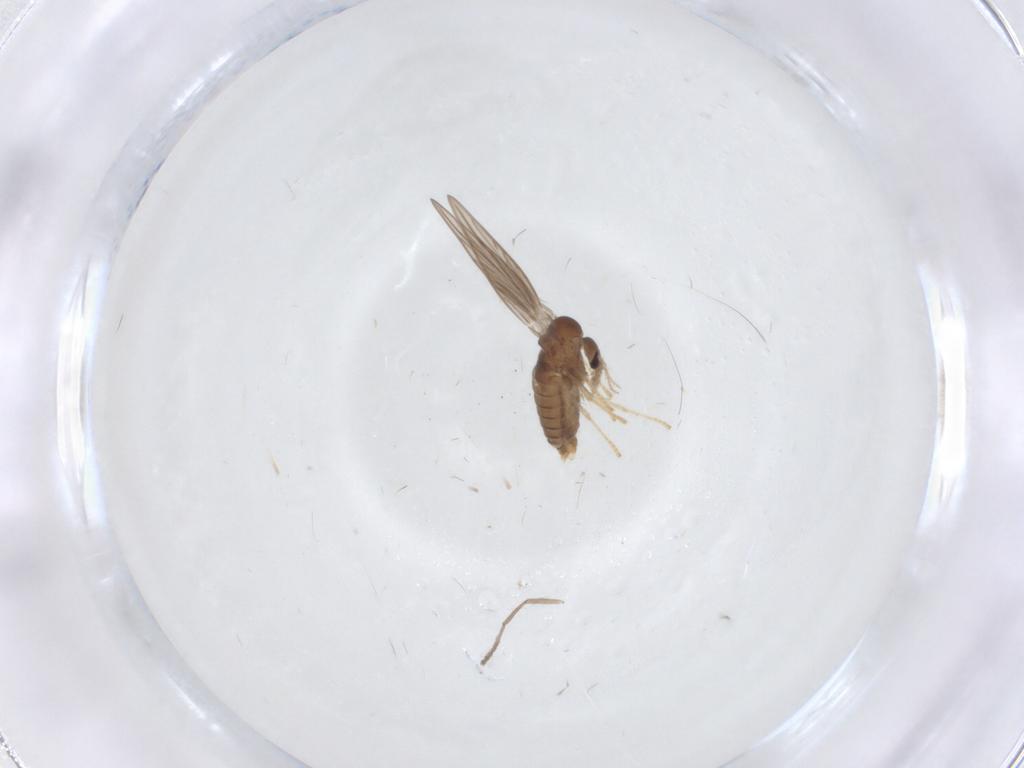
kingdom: Animalia
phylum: Arthropoda
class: Insecta
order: Diptera
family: Psychodidae
